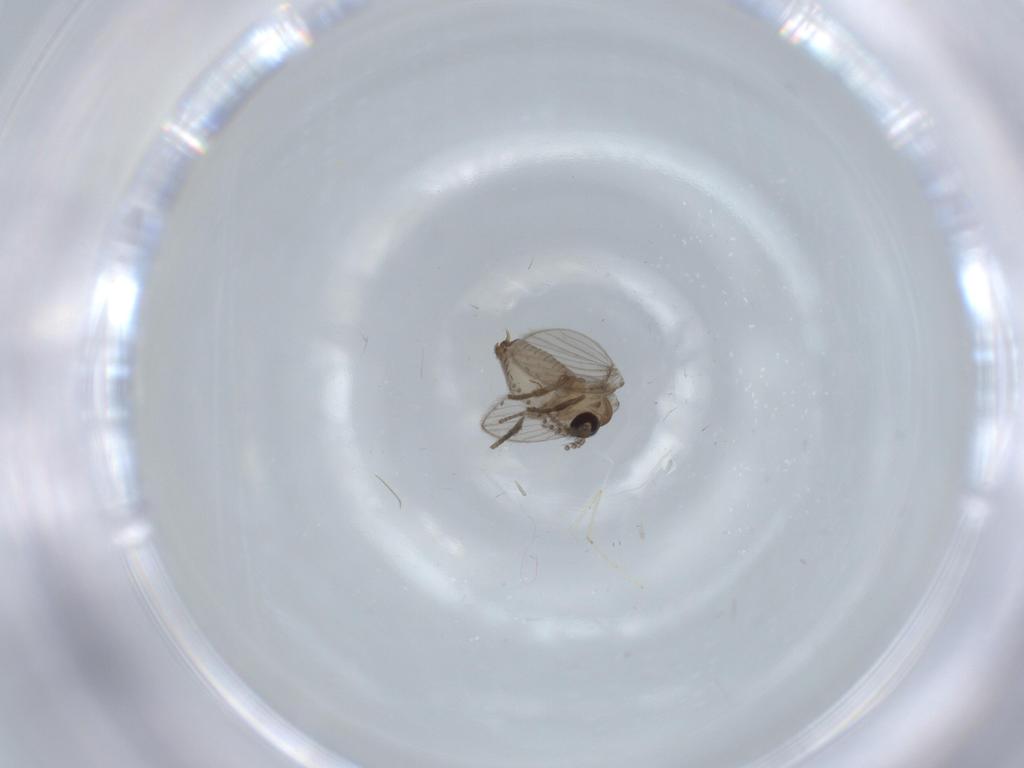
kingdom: Animalia
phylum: Arthropoda
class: Insecta
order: Diptera
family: Psychodidae
